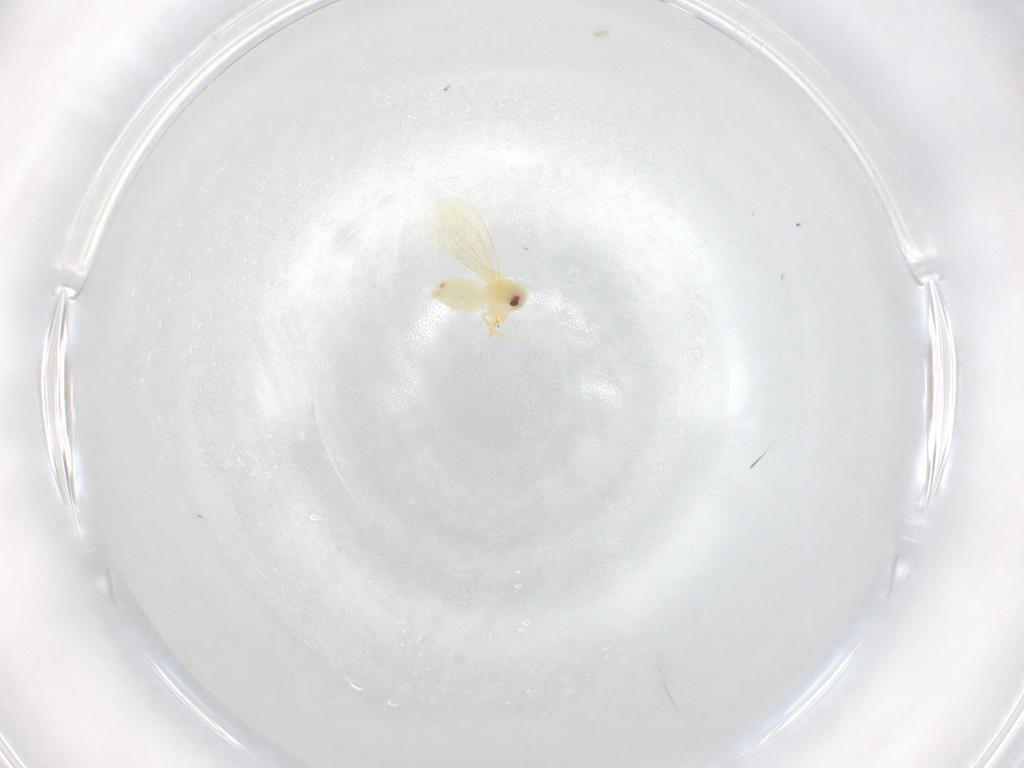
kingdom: Animalia
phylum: Arthropoda
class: Insecta
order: Hemiptera
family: Aleyrodidae
